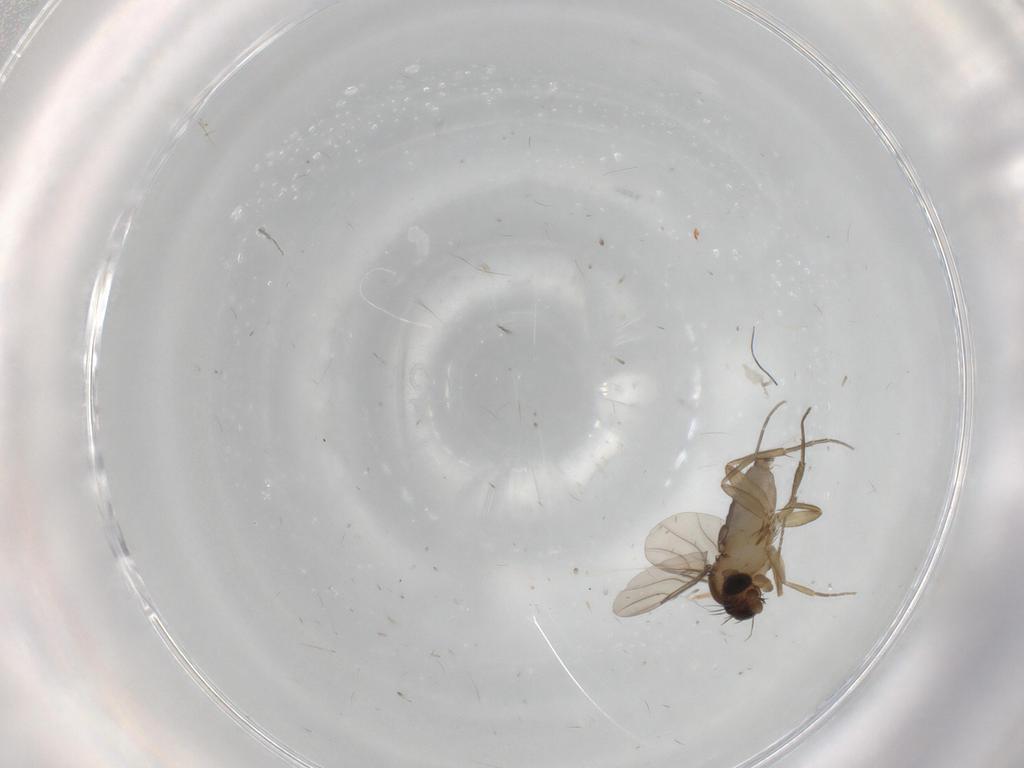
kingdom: Animalia
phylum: Arthropoda
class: Insecta
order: Diptera
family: Phoridae
